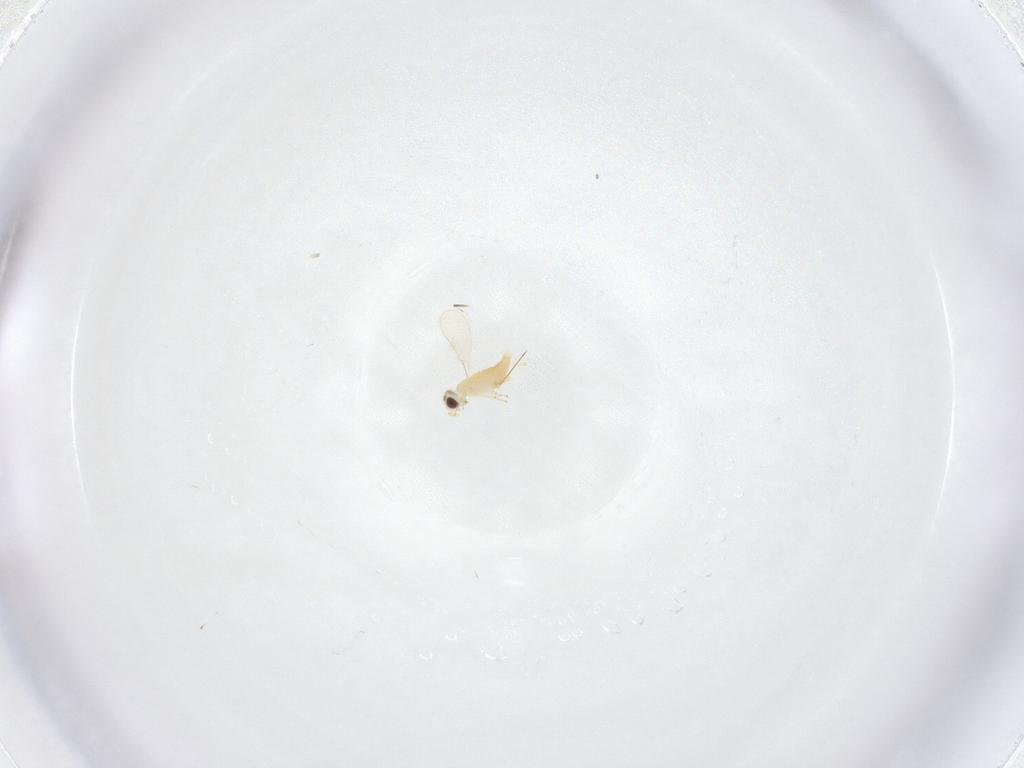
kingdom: Animalia
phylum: Arthropoda
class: Insecta
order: Hymenoptera
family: Aphelinidae
